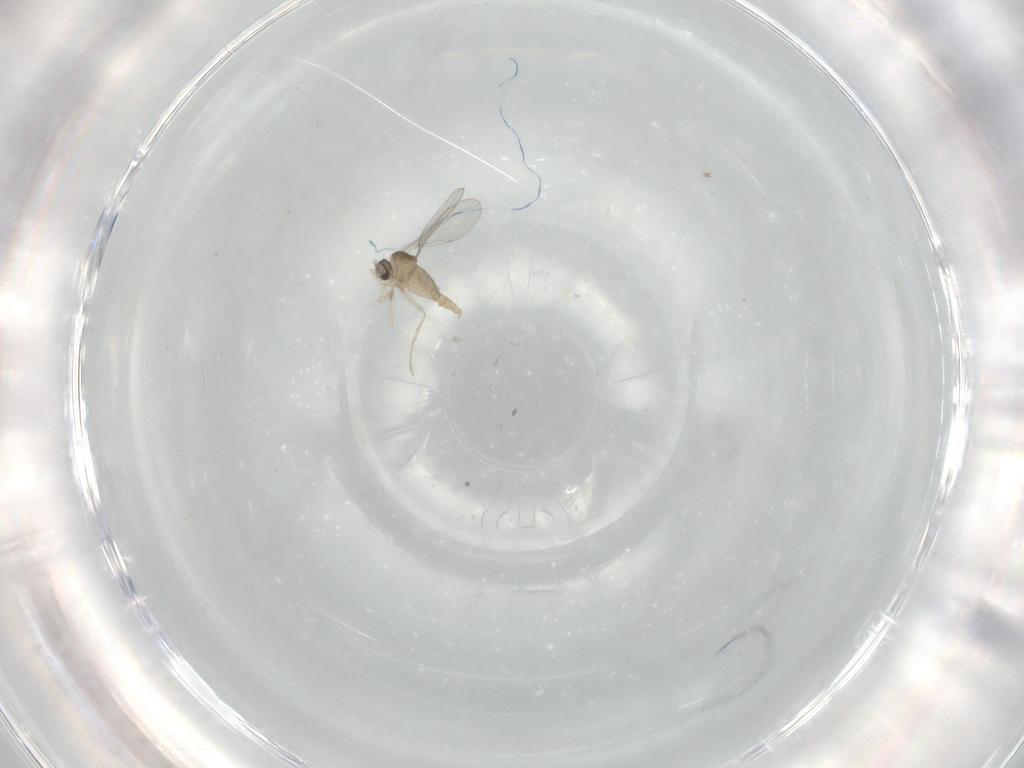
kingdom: Animalia
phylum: Arthropoda
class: Insecta
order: Diptera
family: Cecidomyiidae
